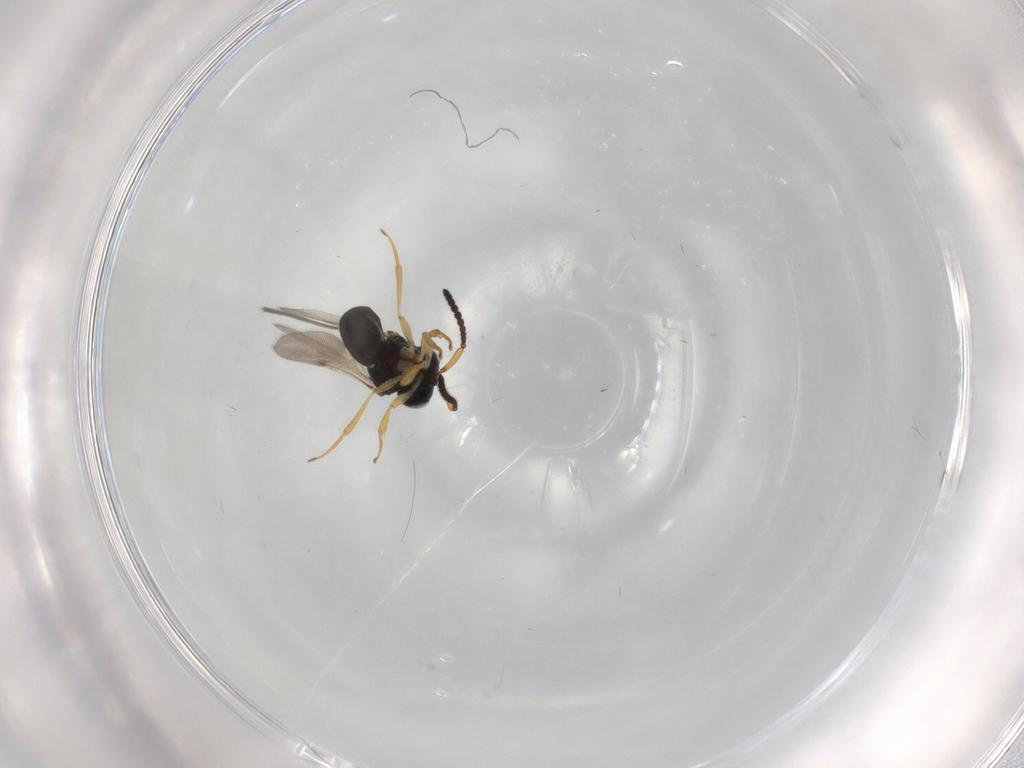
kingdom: Animalia
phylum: Arthropoda
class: Insecta
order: Hymenoptera
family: Scelionidae
